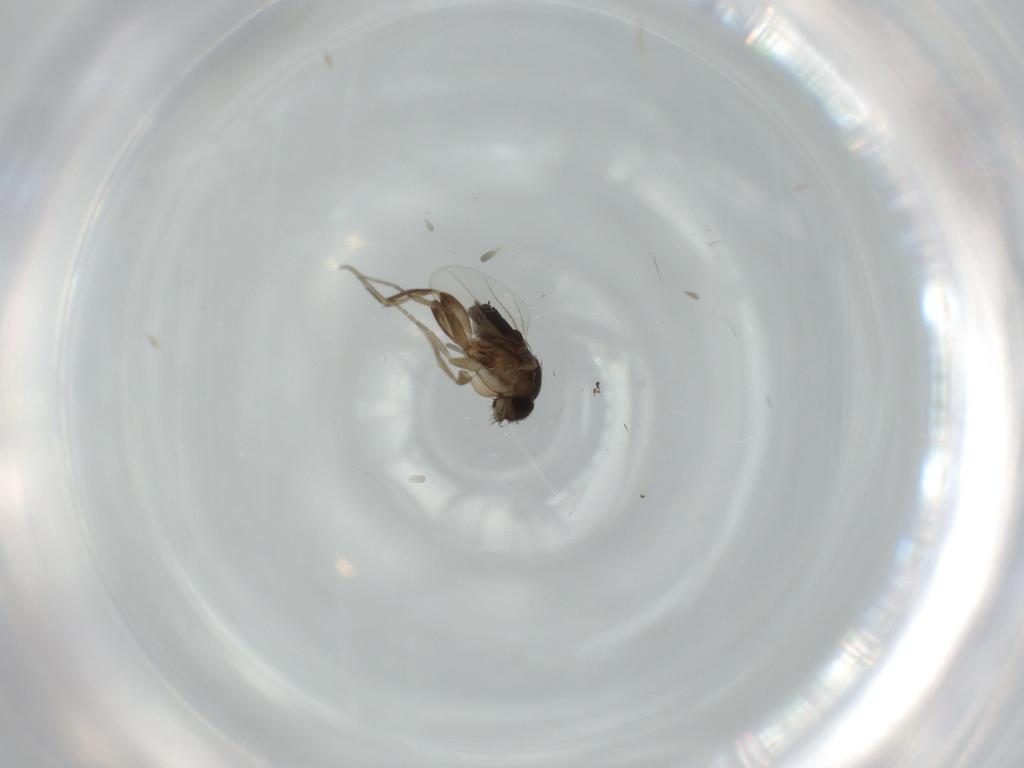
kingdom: Animalia
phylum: Arthropoda
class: Insecta
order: Diptera
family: Phoridae
